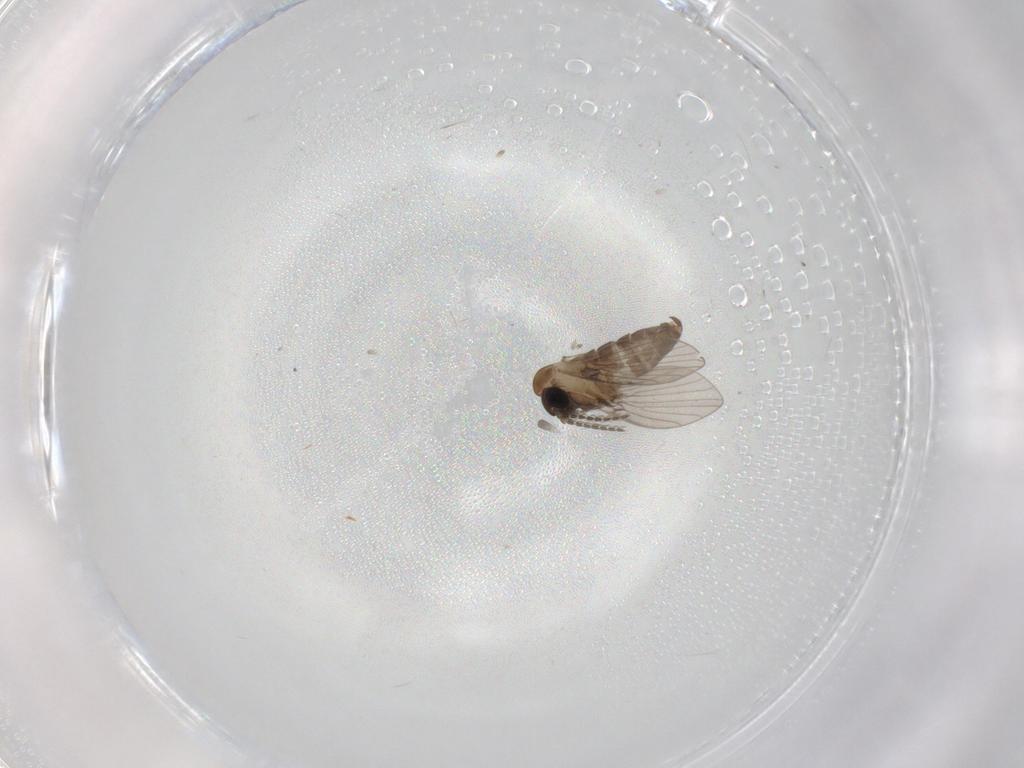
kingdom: Animalia
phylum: Arthropoda
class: Insecta
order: Diptera
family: Psychodidae
